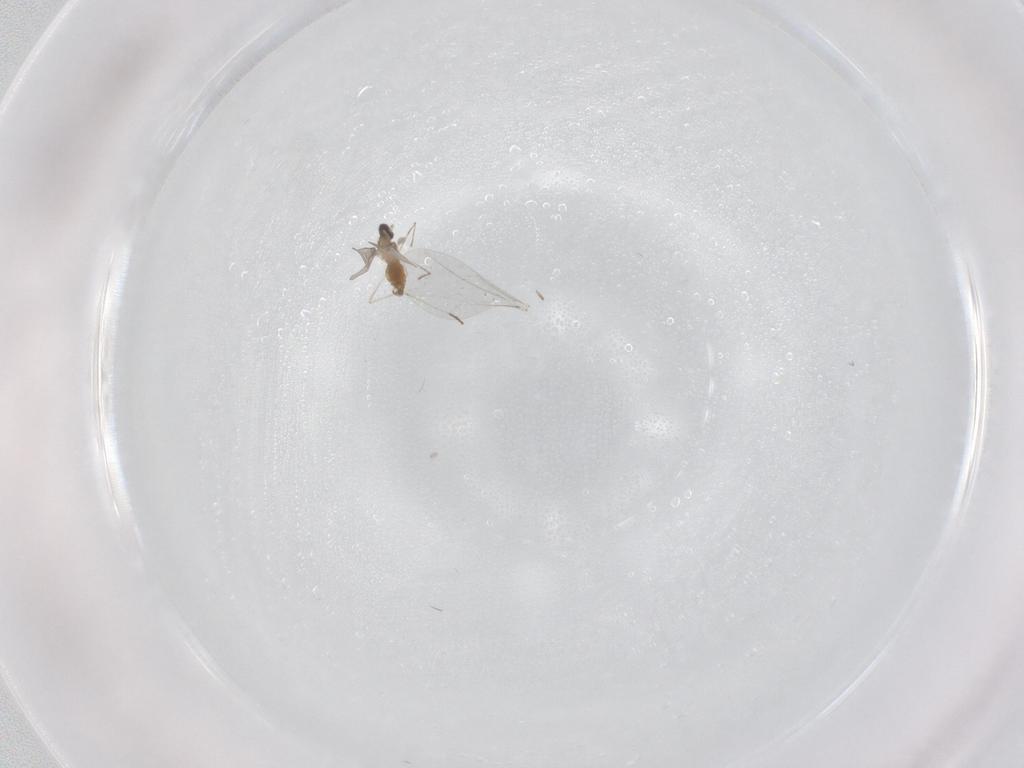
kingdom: Animalia
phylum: Arthropoda
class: Insecta
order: Diptera
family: Cecidomyiidae
